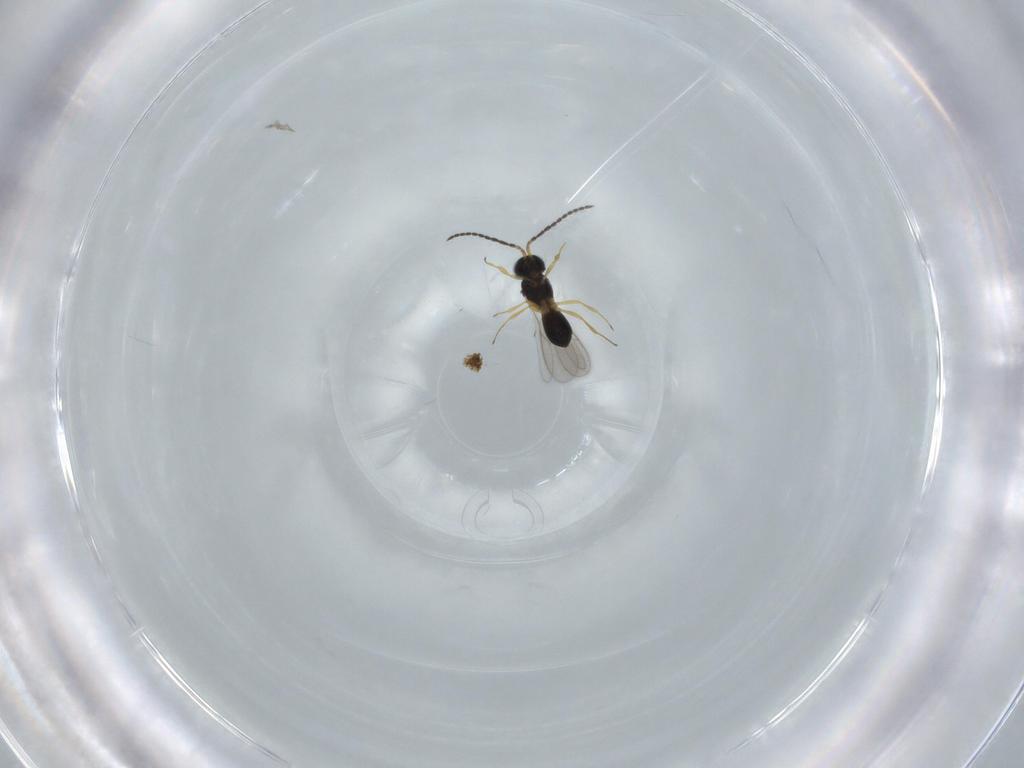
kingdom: Animalia
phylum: Arthropoda
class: Insecta
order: Hymenoptera
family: Scelionidae
